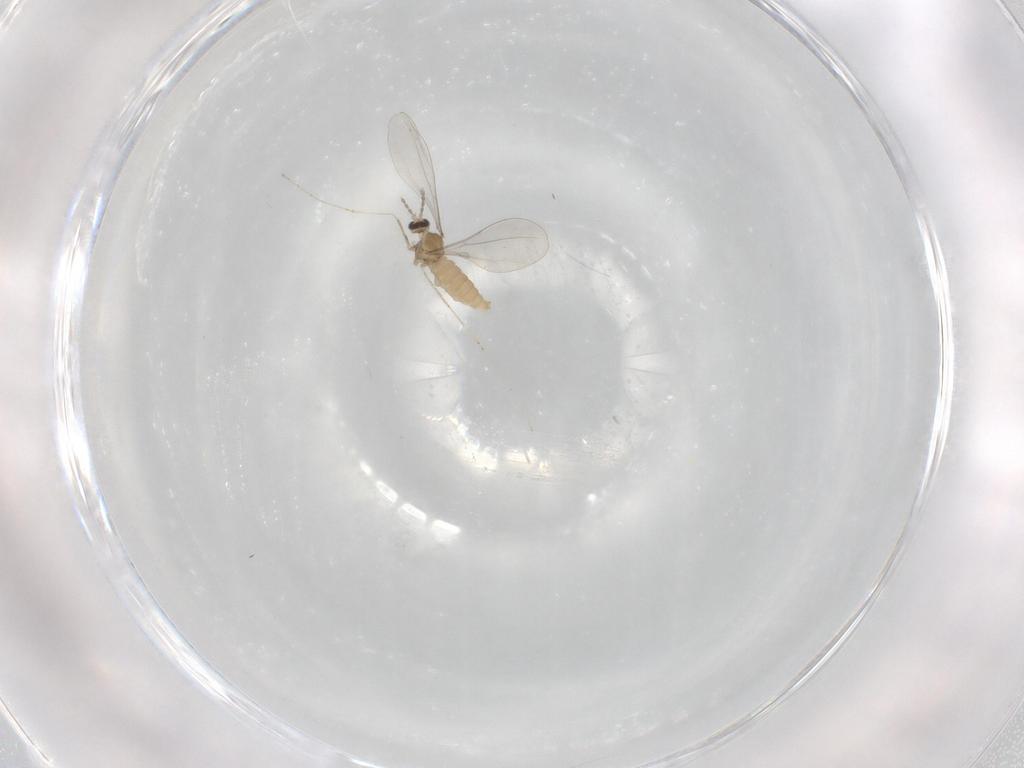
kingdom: Animalia
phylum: Arthropoda
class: Insecta
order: Diptera
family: Cecidomyiidae
